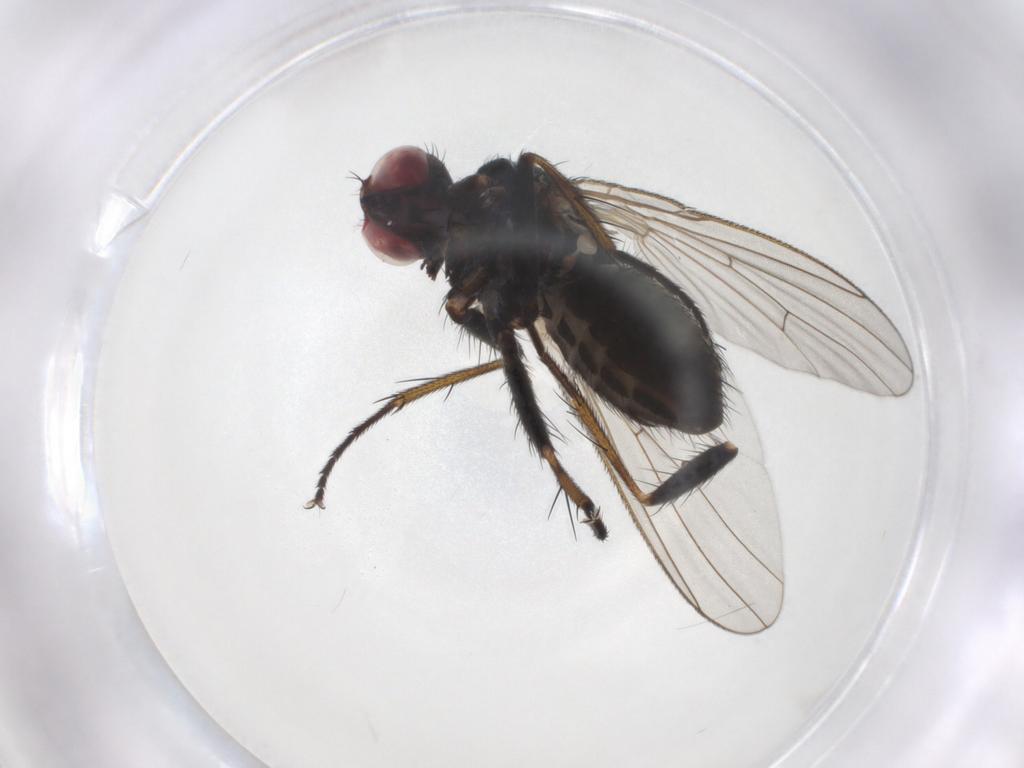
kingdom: Animalia
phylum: Arthropoda
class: Insecta
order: Diptera
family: Muscidae
